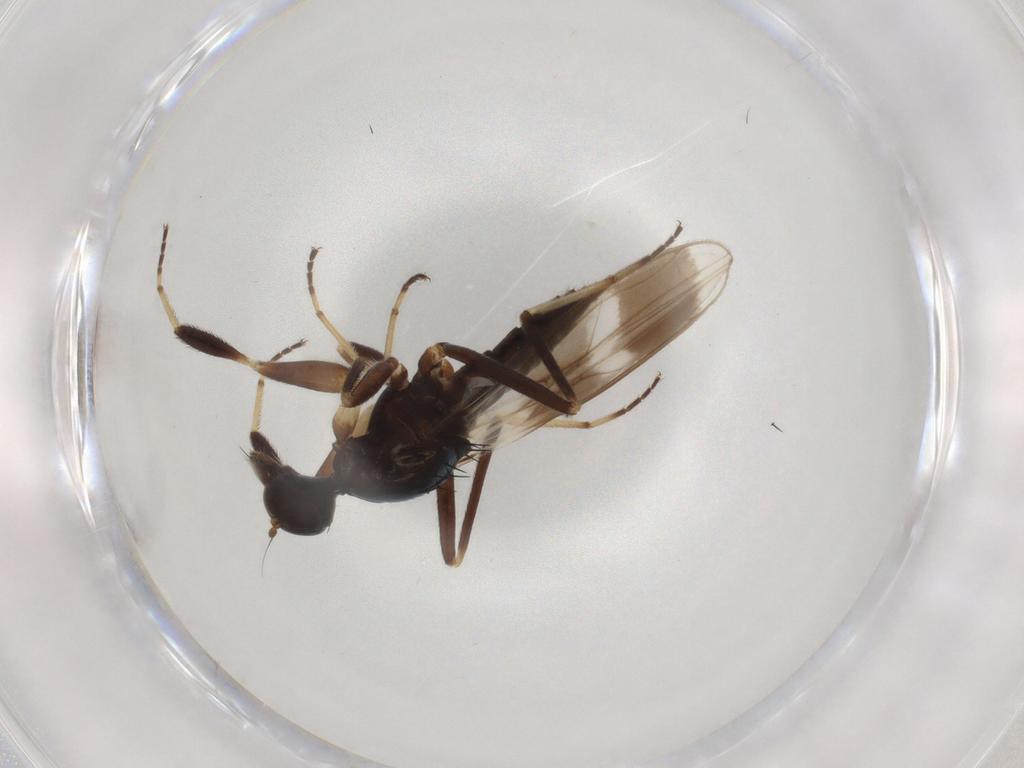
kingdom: Animalia
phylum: Arthropoda
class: Insecta
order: Diptera
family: Hybotidae
